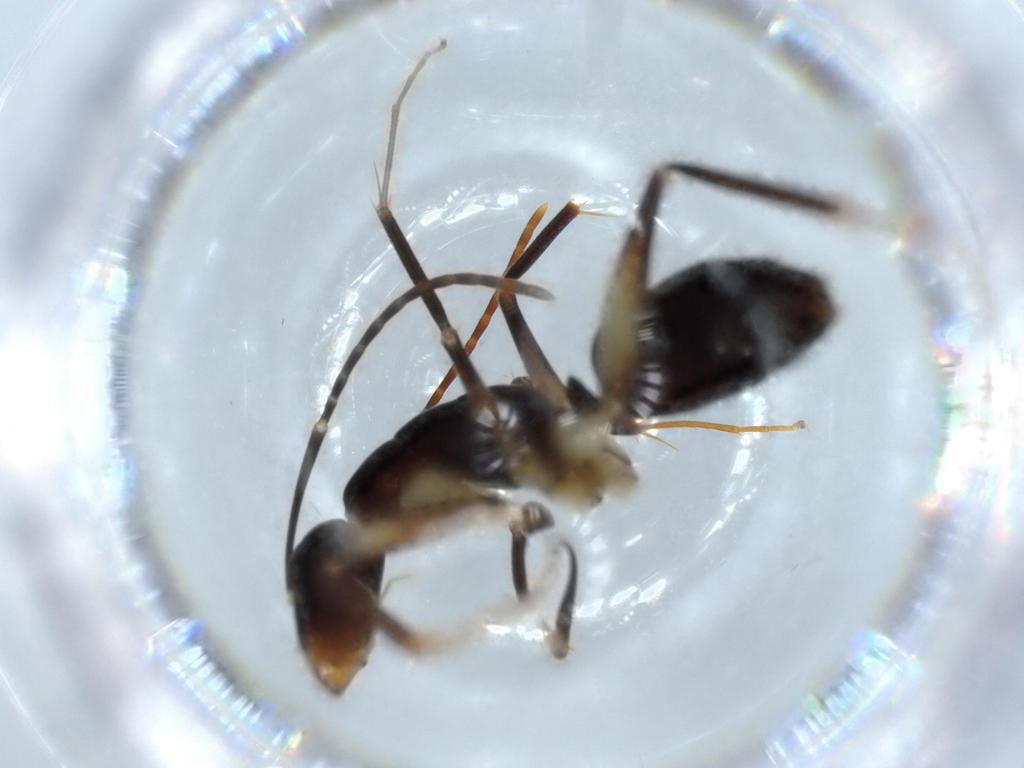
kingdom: Animalia
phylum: Arthropoda
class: Insecta
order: Hymenoptera
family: Formicidae
